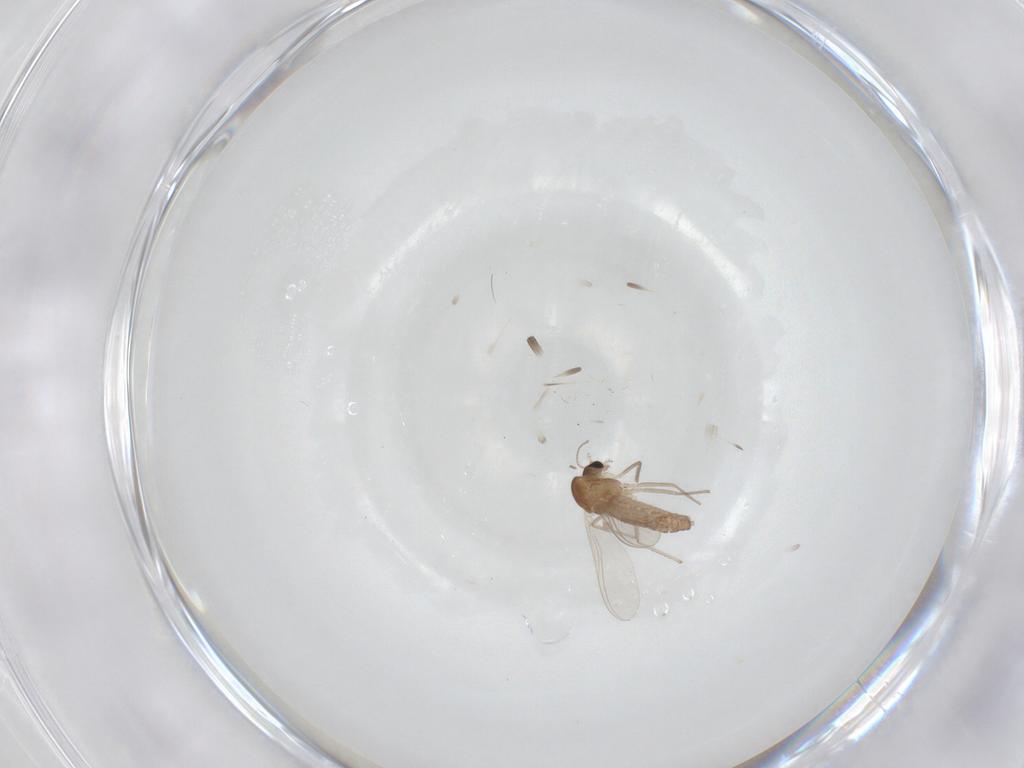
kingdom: Animalia
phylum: Arthropoda
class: Insecta
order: Diptera
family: Chironomidae
